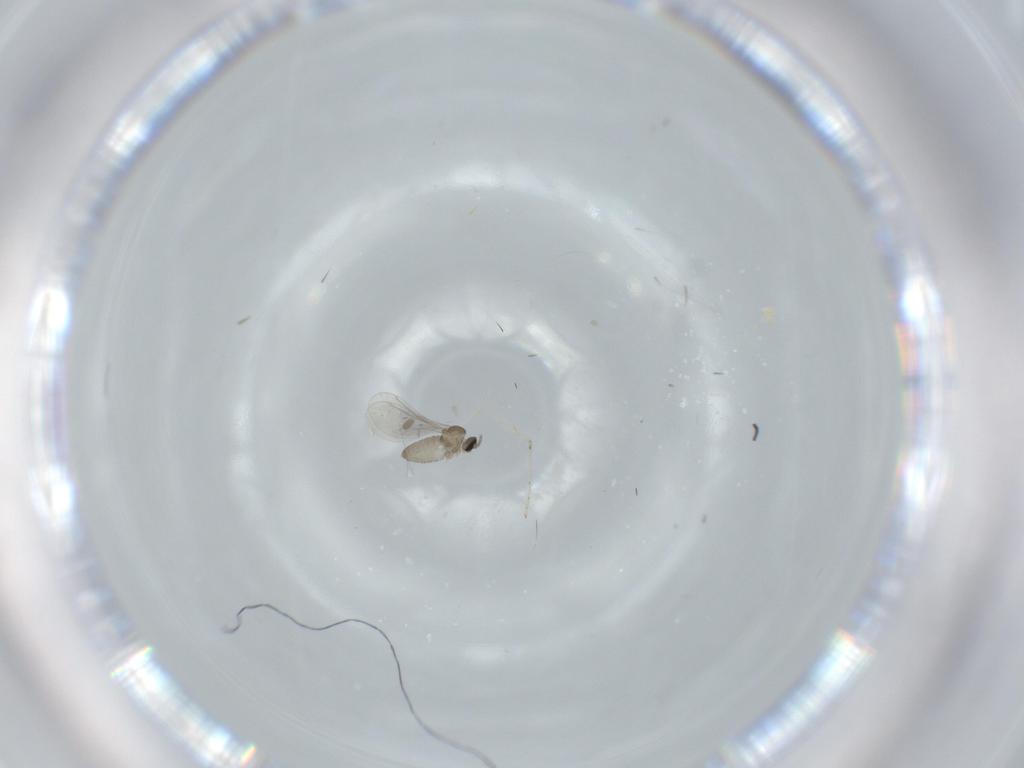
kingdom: Animalia
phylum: Arthropoda
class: Insecta
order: Diptera
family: Cecidomyiidae
